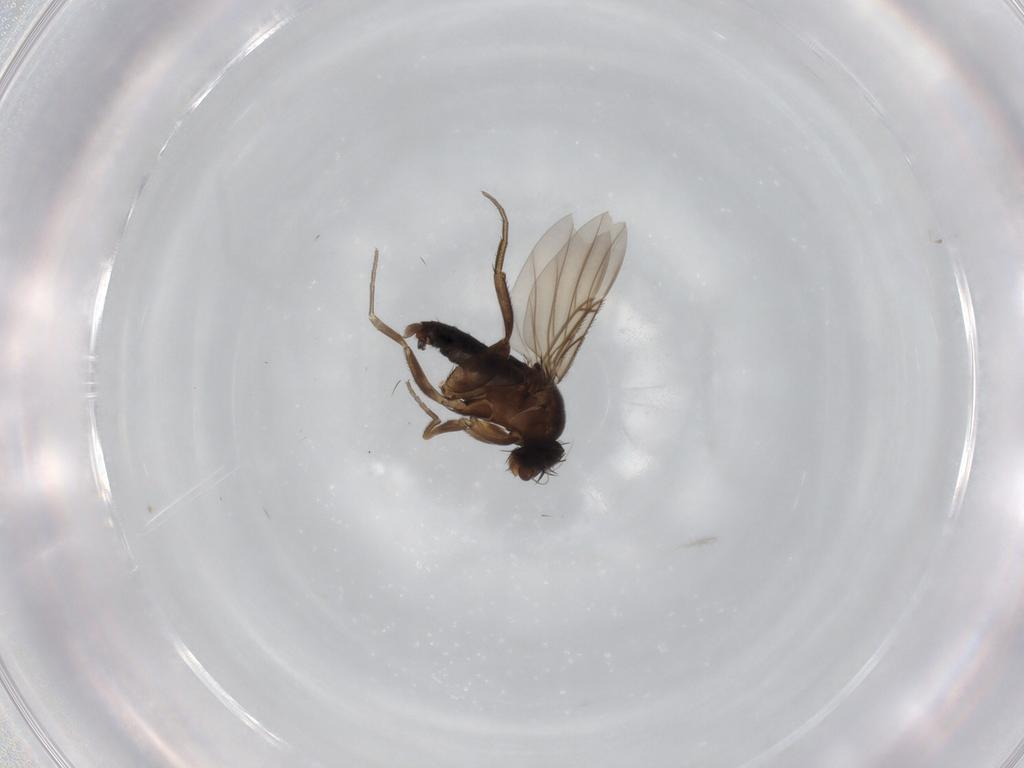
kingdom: Animalia
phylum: Arthropoda
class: Insecta
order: Diptera
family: Phoridae
